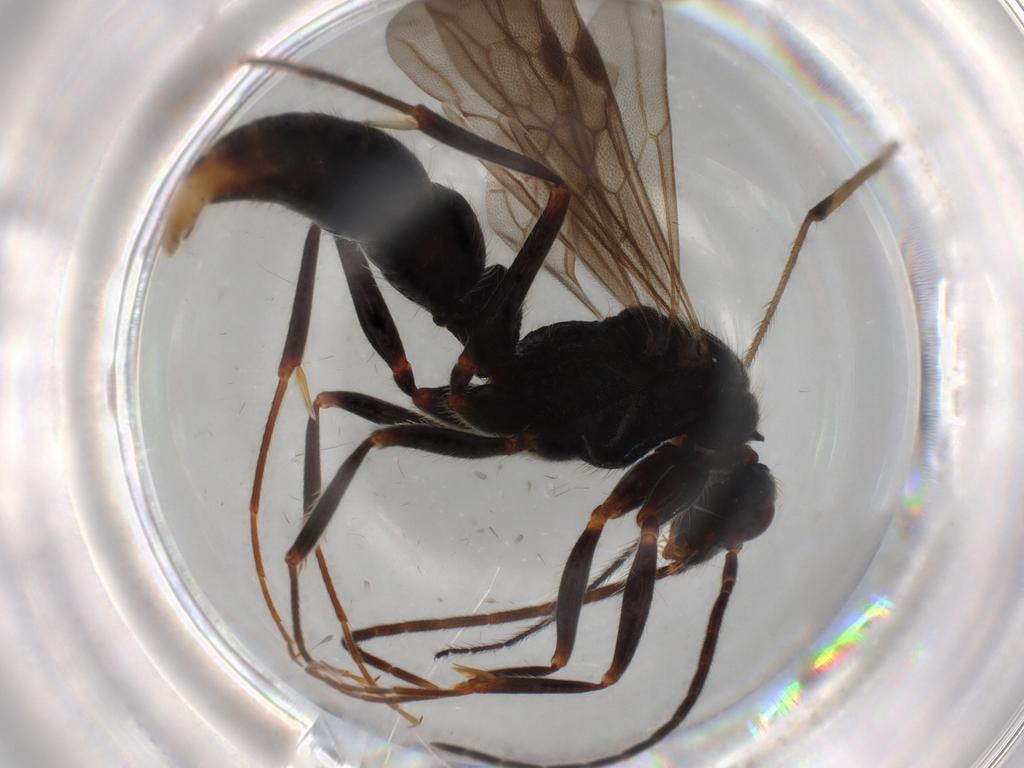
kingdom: Animalia
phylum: Arthropoda
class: Insecta
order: Hymenoptera
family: Formicidae
